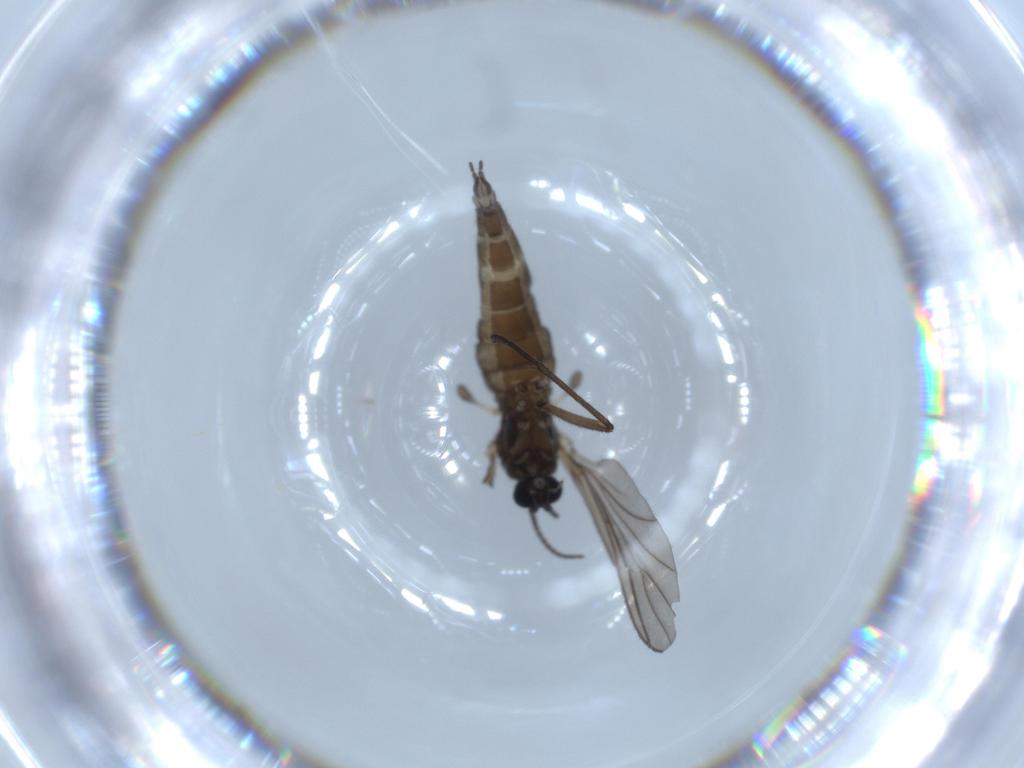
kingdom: Animalia
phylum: Arthropoda
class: Insecta
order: Diptera
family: Sciaridae
